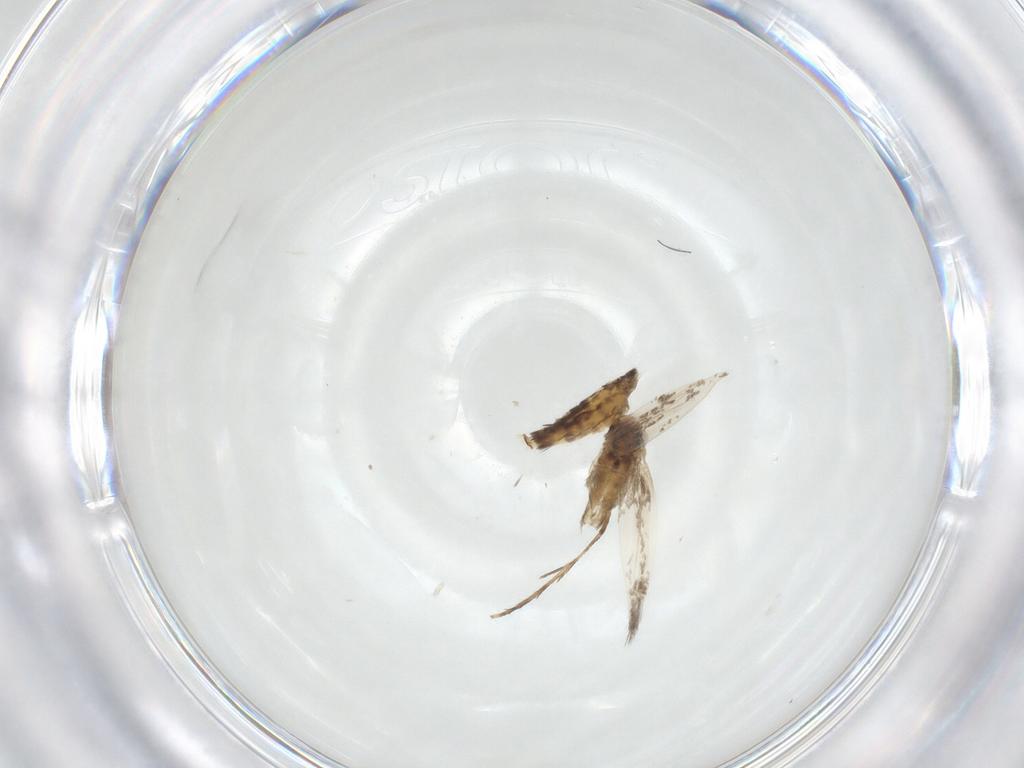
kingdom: Animalia
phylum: Arthropoda
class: Insecta
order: Lepidoptera
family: Gracillariidae
